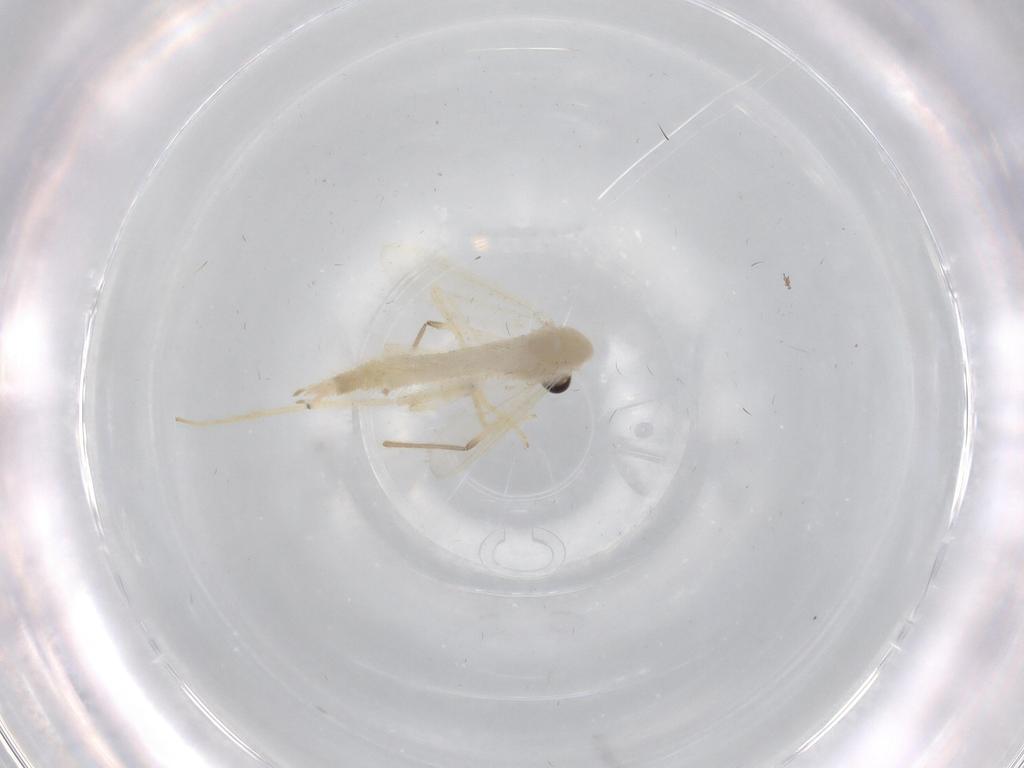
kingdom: Animalia
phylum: Arthropoda
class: Insecta
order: Diptera
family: Chironomidae
